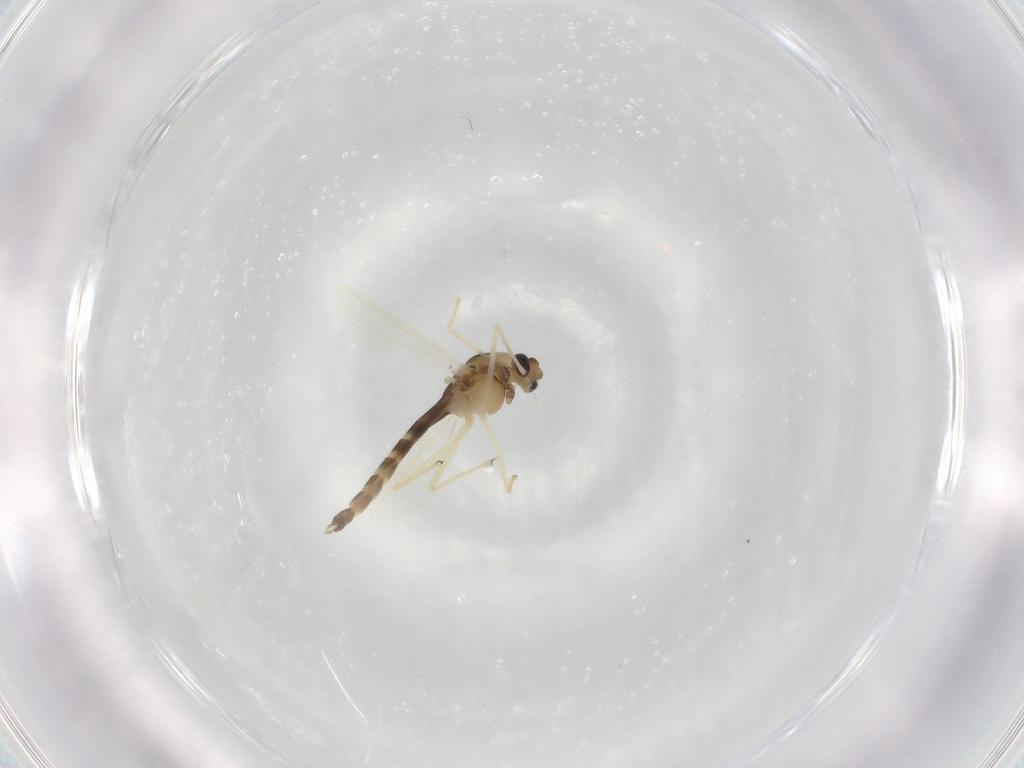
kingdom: Animalia
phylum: Arthropoda
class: Insecta
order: Diptera
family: Chironomidae
